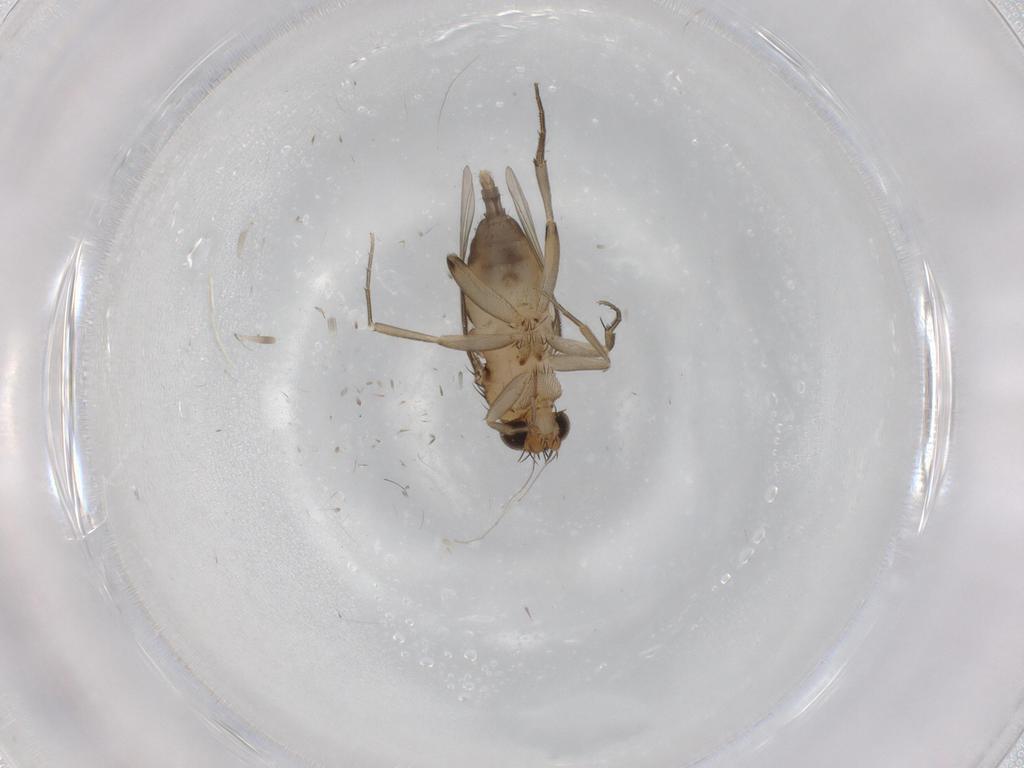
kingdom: Animalia
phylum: Arthropoda
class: Insecta
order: Diptera
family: Phoridae
